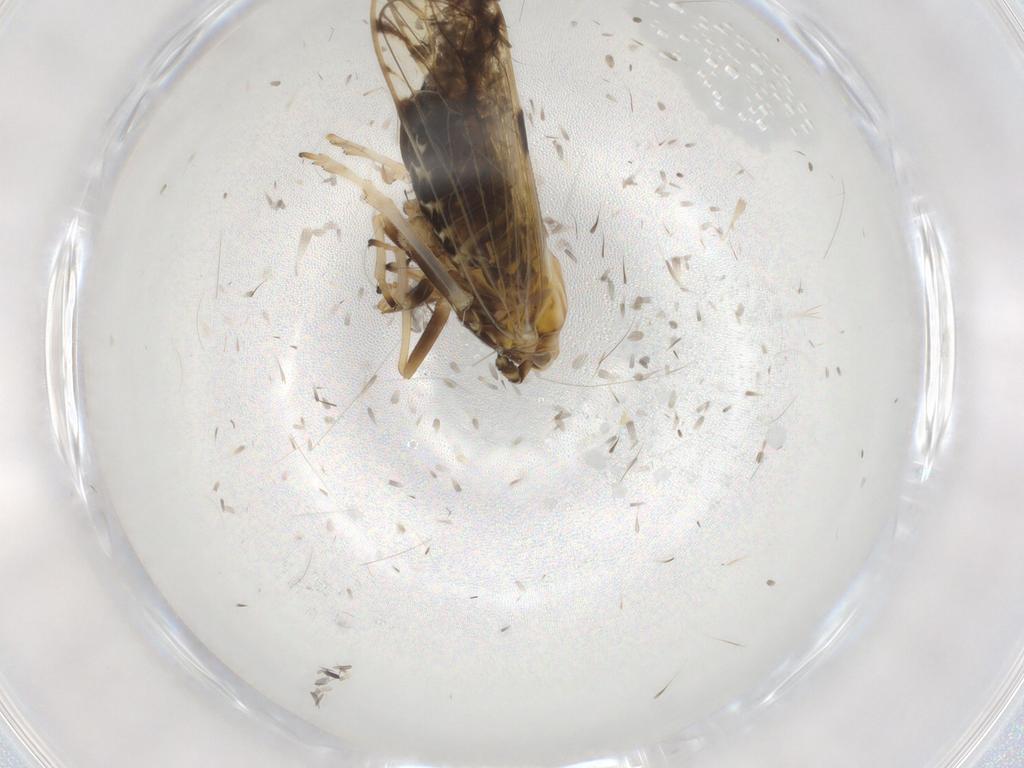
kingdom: Animalia
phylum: Arthropoda
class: Insecta
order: Hemiptera
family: Delphacidae
